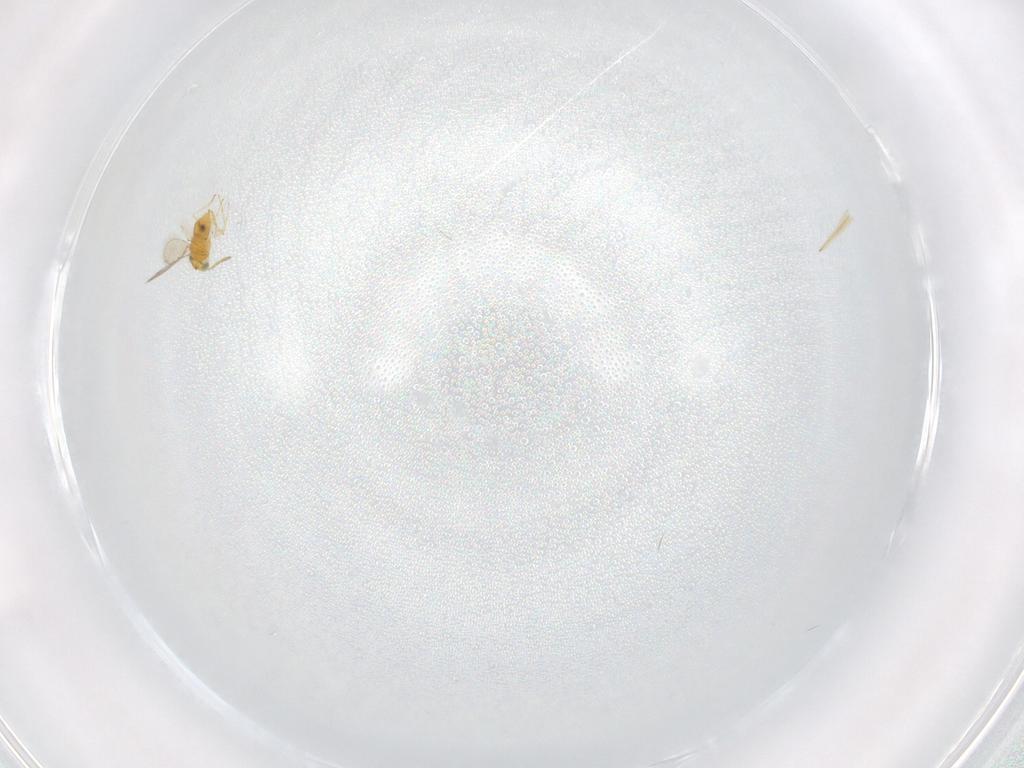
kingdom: Animalia
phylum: Arthropoda
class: Insecta
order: Hymenoptera
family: Aphelinidae
